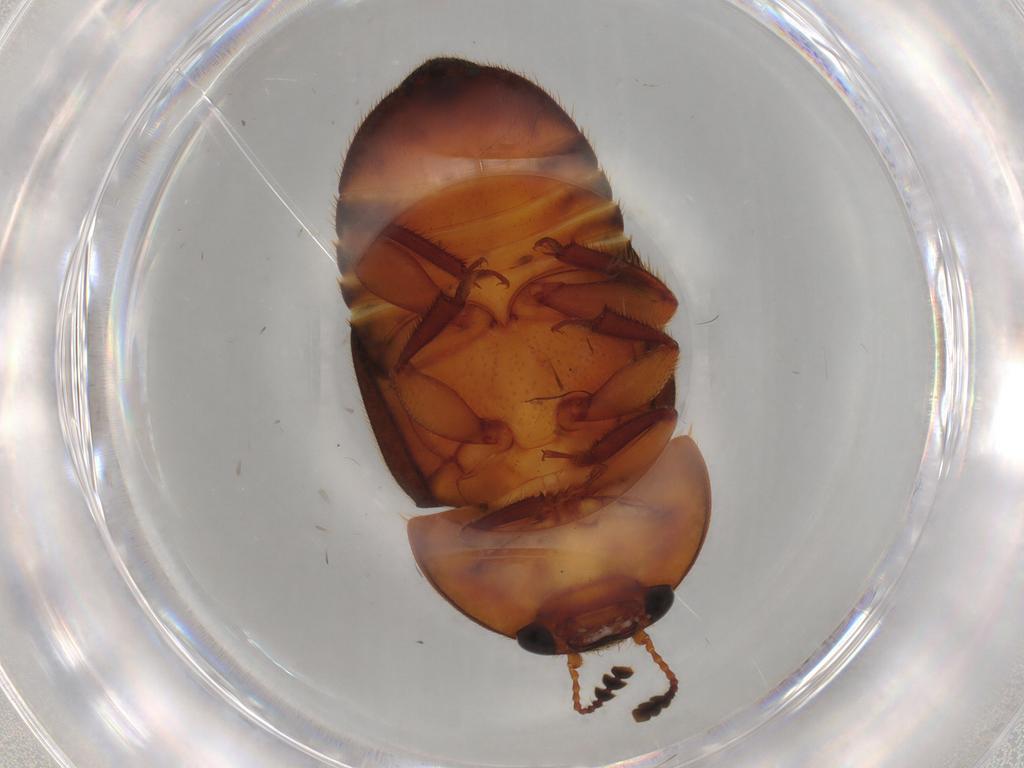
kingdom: Animalia
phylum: Arthropoda
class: Insecta
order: Coleoptera
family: Nitidulidae
